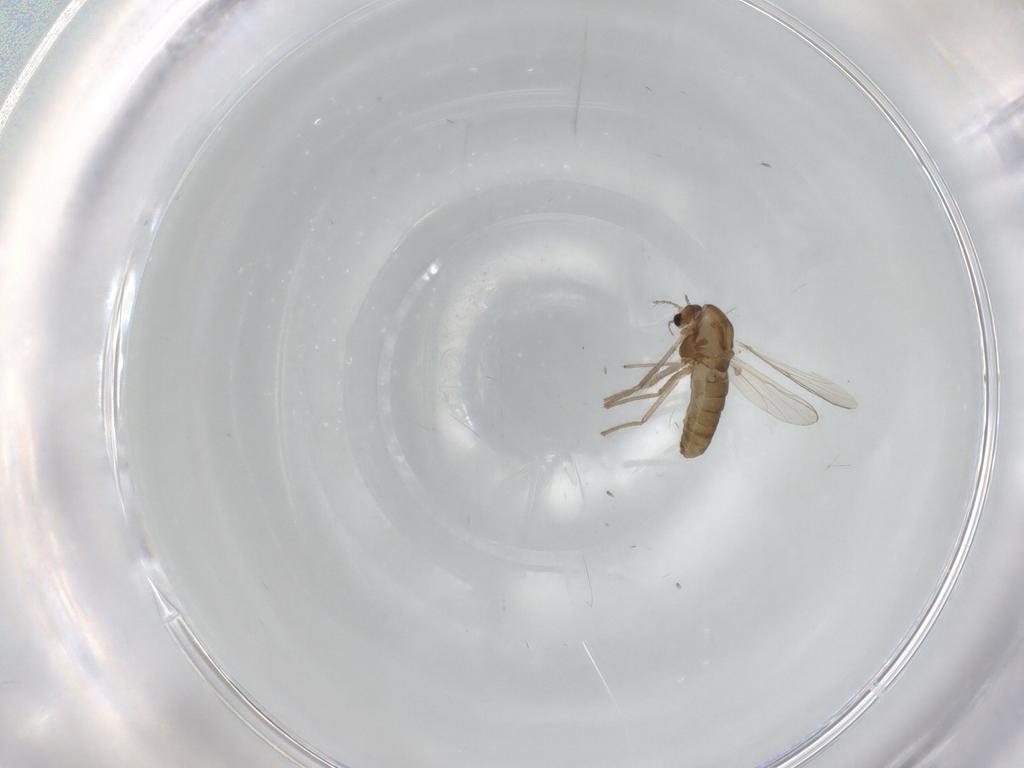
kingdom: Animalia
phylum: Arthropoda
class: Insecta
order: Diptera
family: Chironomidae
